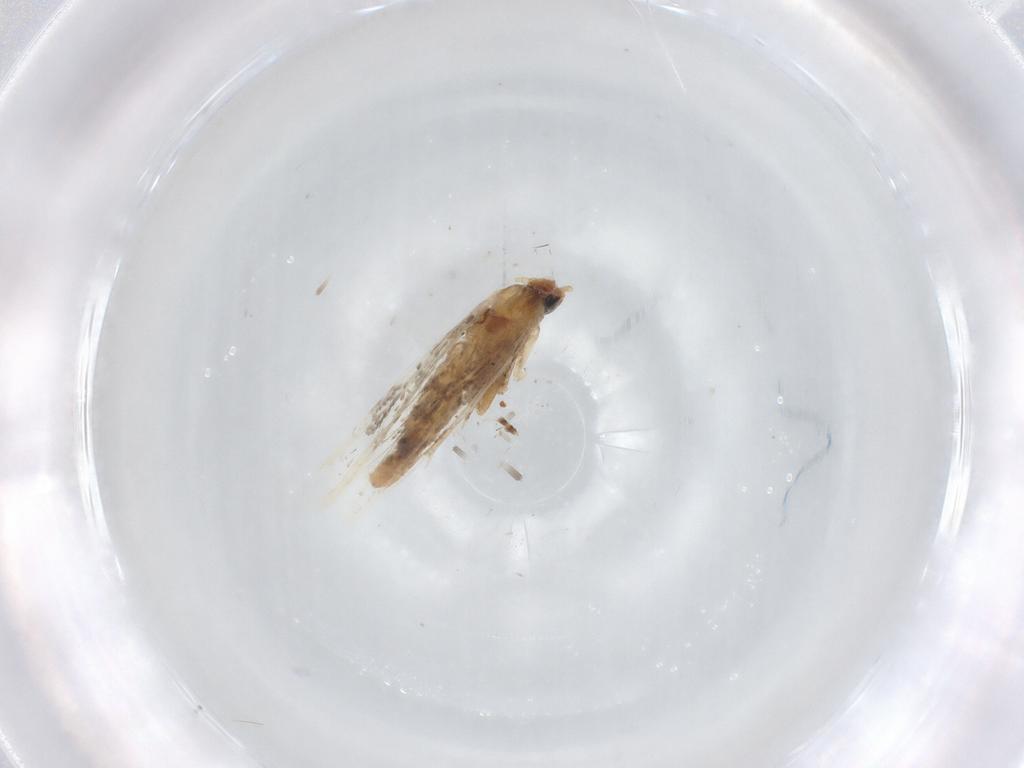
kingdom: Animalia
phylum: Arthropoda
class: Insecta
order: Lepidoptera
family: Gracillariidae
